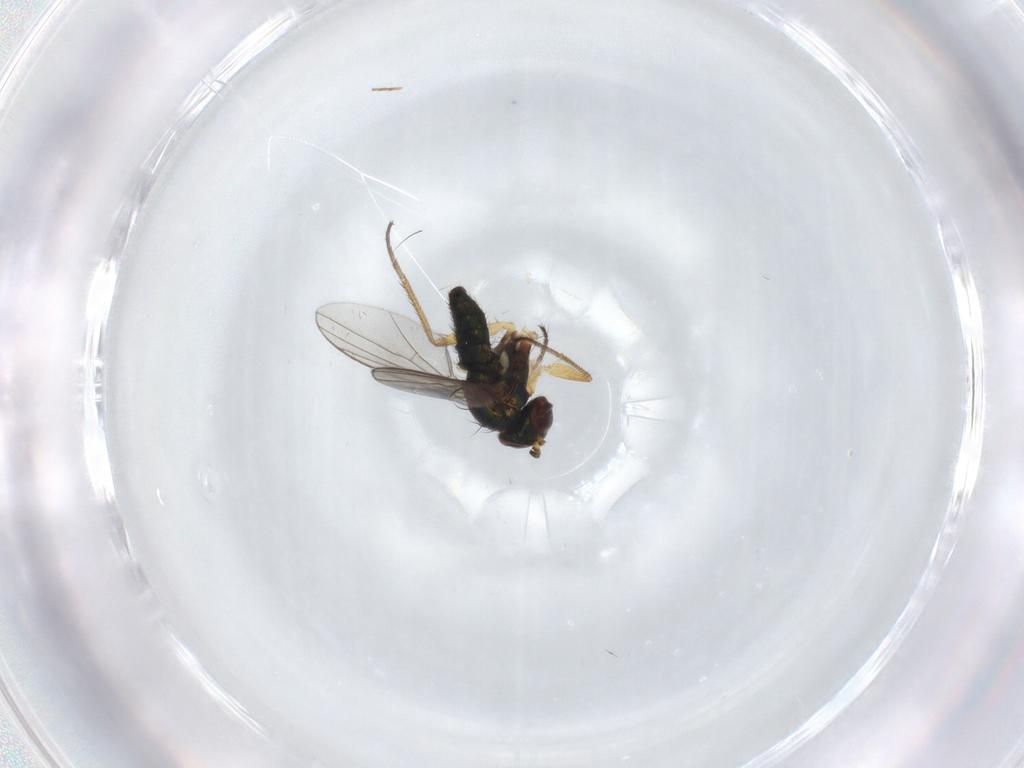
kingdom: Animalia
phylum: Arthropoda
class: Insecta
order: Diptera
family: Ceratopogonidae
